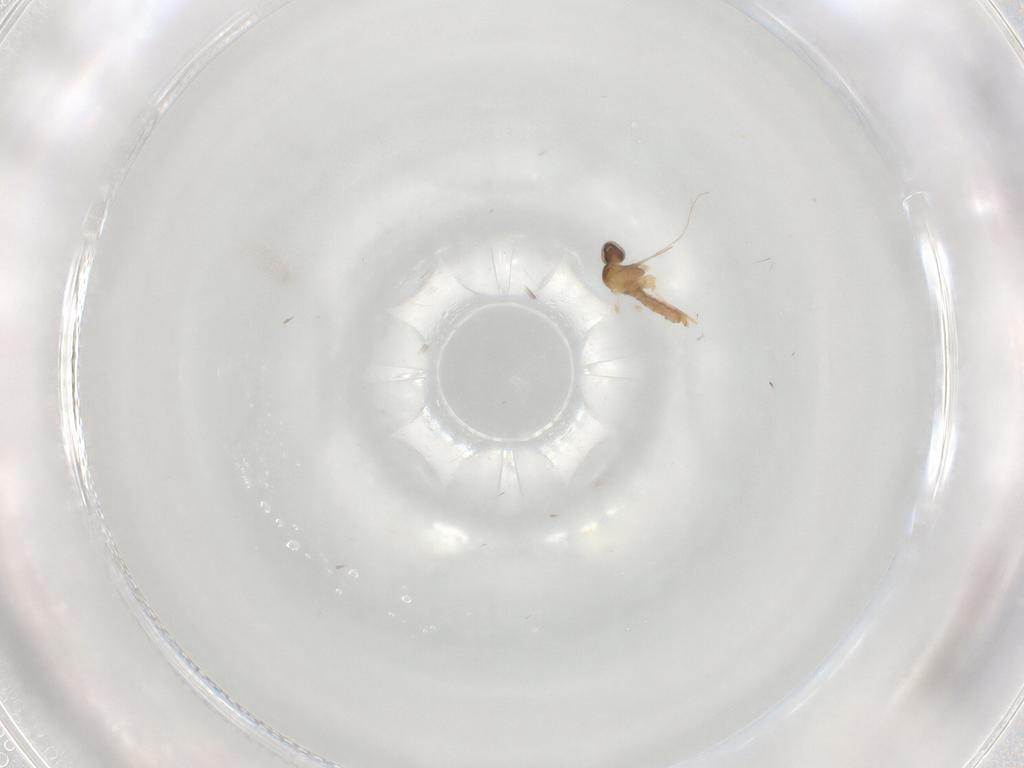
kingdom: Animalia
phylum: Arthropoda
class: Insecta
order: Diptera
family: Cecidomyiidae
